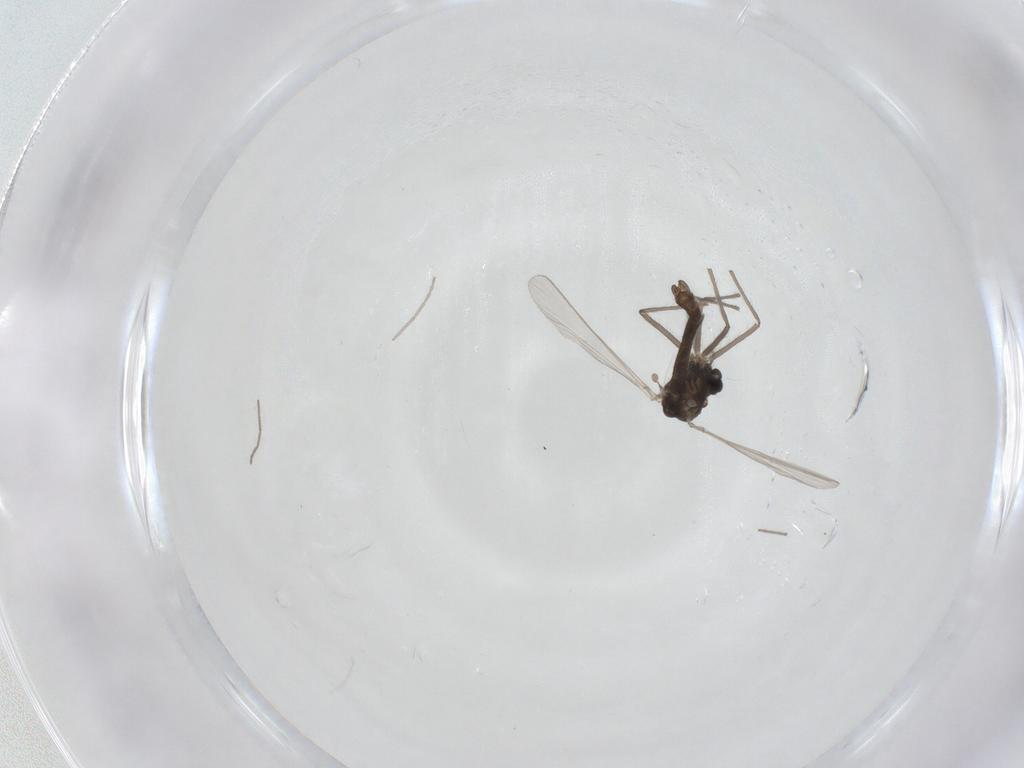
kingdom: Animalia
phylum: Arthropoda
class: Insecta
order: Diptera
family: Chironomidae
